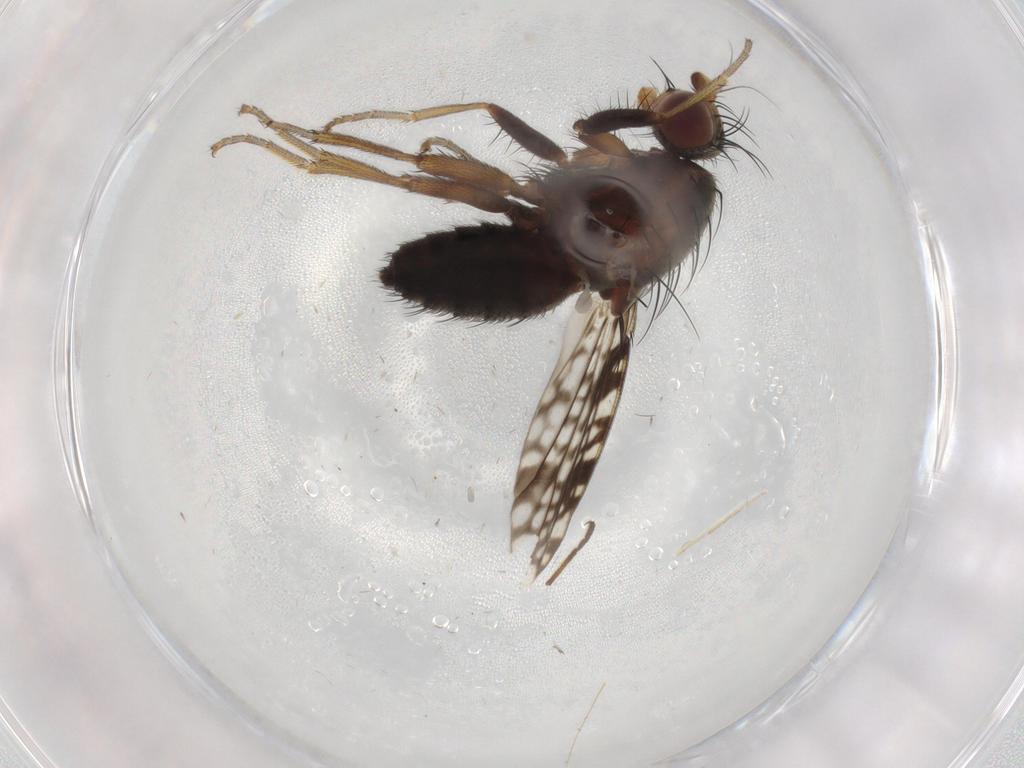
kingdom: Animalia
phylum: Arthropoda
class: Insecta
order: Diptera
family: Tephritidae
